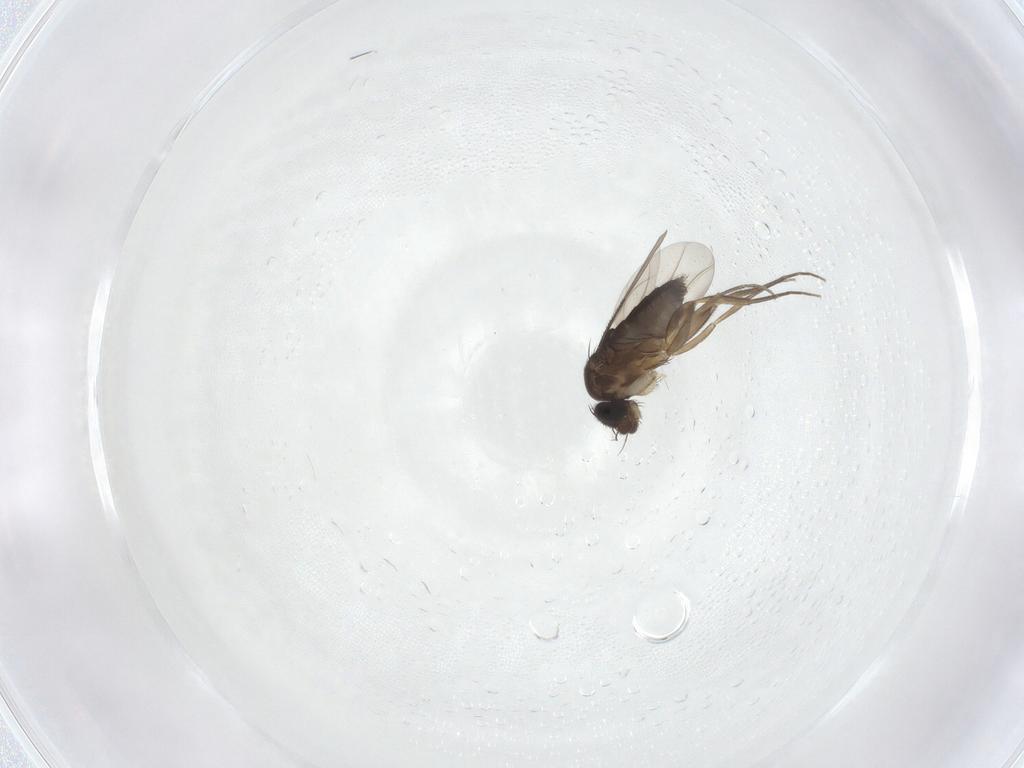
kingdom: Animalia
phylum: Arthropoda
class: Insecta
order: Diptera
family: Phoridae
